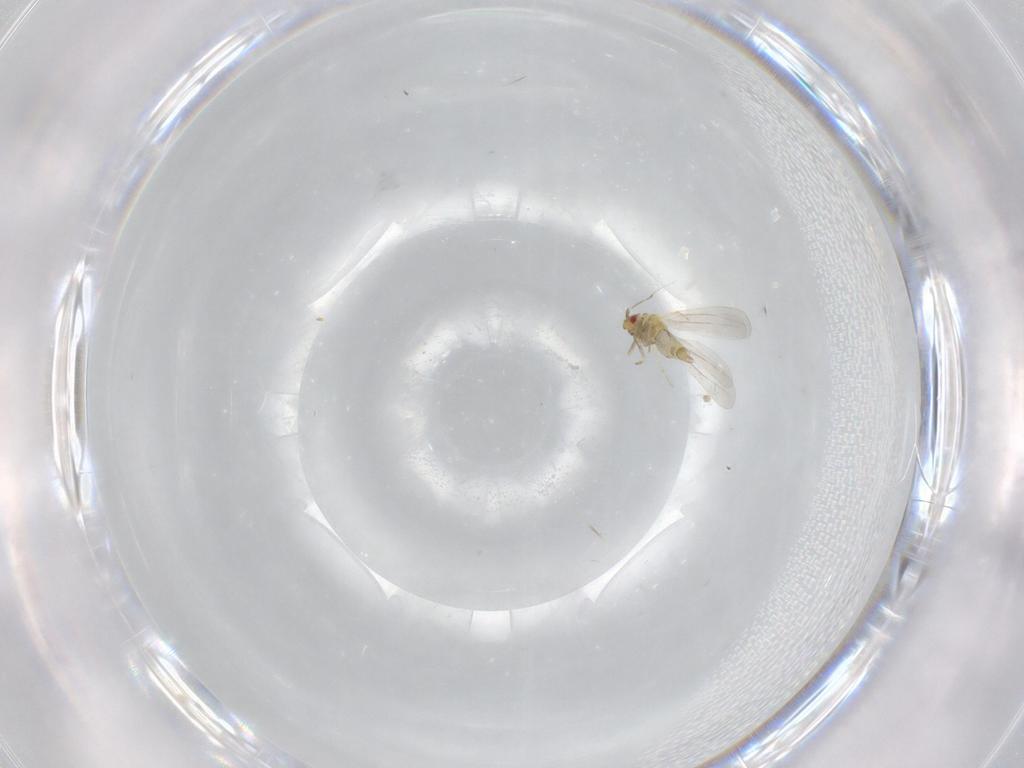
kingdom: Animalia
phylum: Arthropoda
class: Insecta
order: Hemiptera
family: Aleyrodidae
